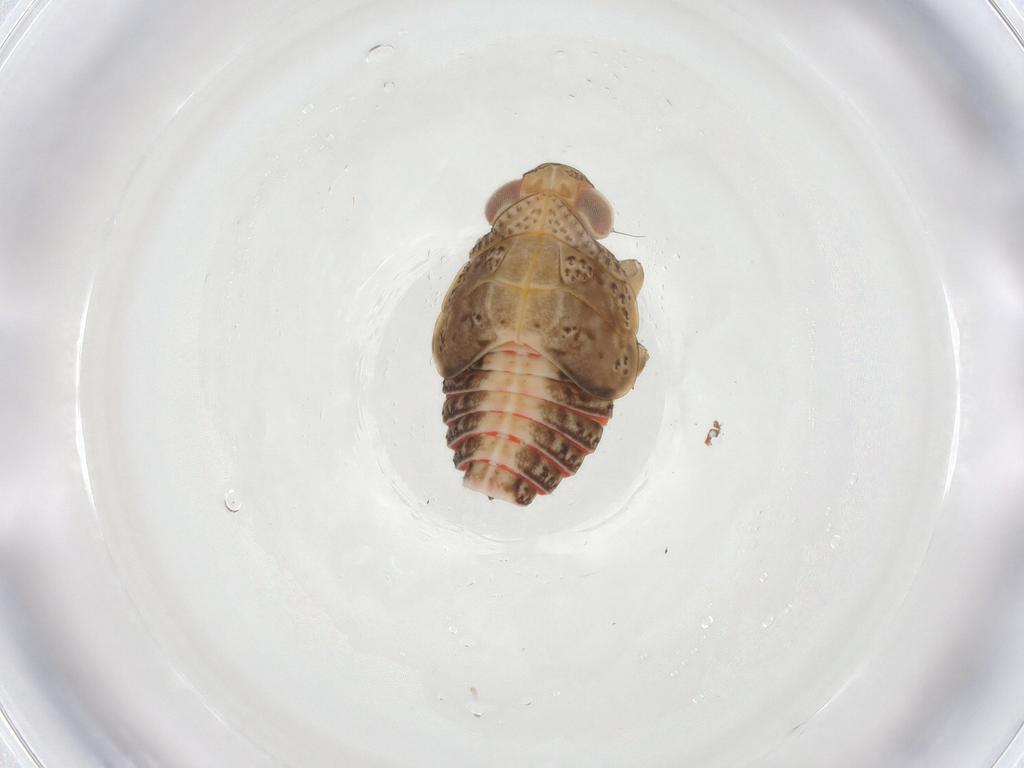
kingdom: Animalia
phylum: Arthropoda
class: Insecta
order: Hemiptera
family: Issidae
